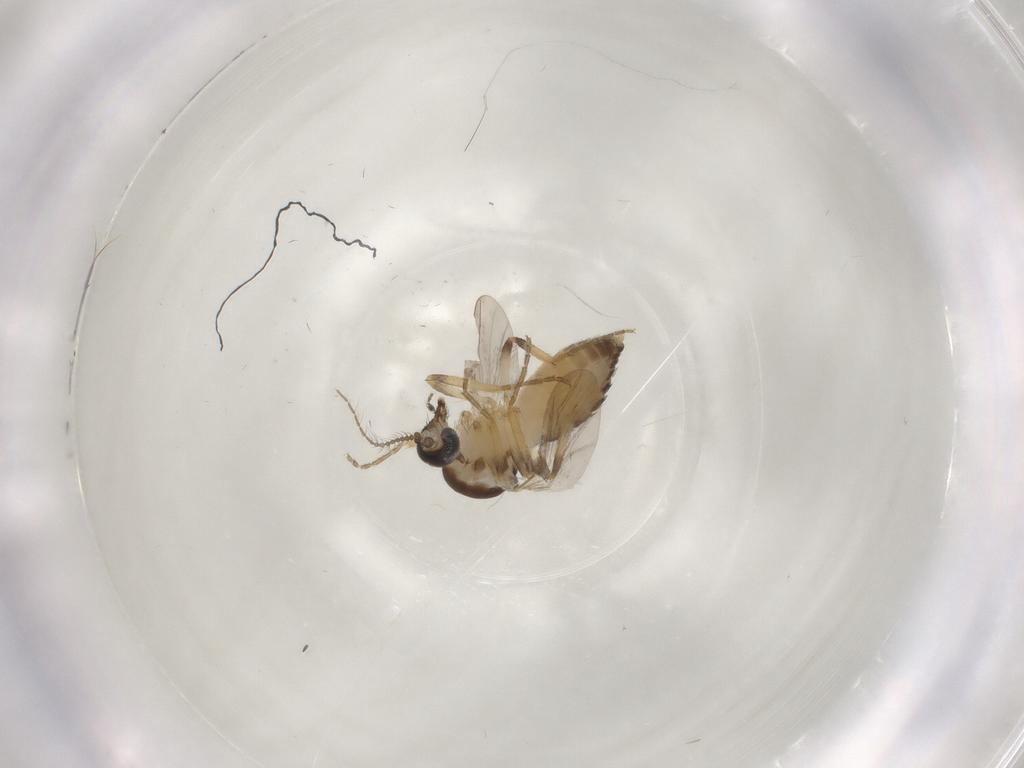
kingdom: Animalia
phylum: Arthropoda
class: Insecta
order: Diptera
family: Ceratopogonidae
